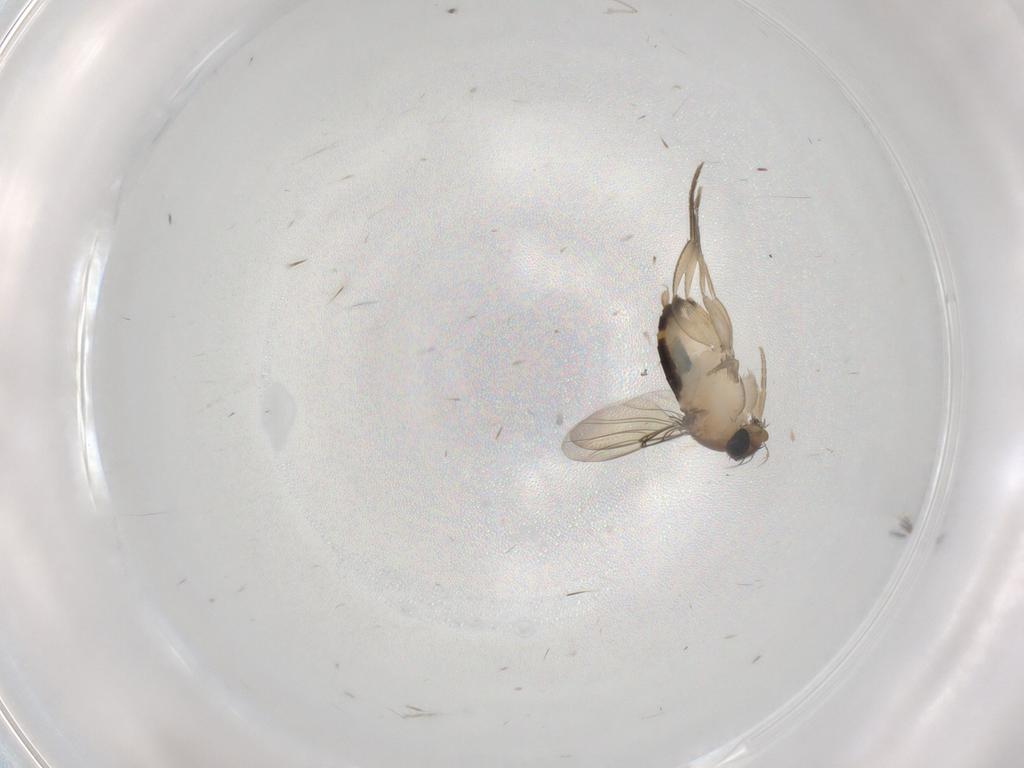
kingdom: Animalia
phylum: Arthropoda
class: Insecta
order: Diptera
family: Phoridae
